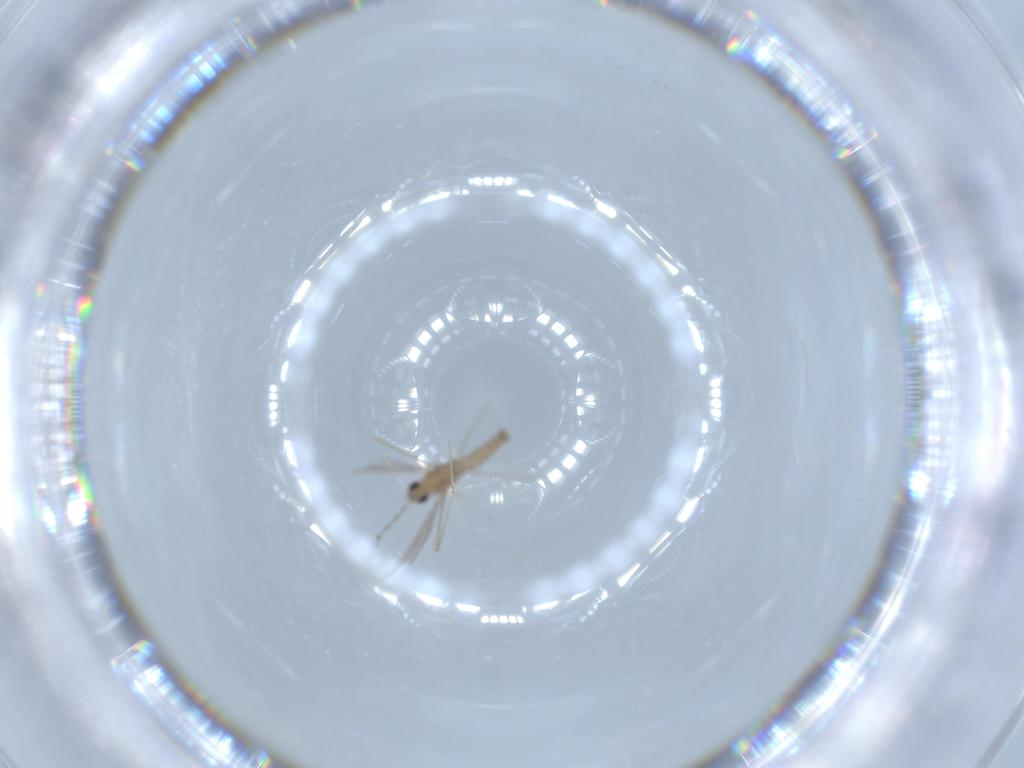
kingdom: Animalia
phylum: Arthropoda
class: Insecta
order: Diptera
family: Cecidomyiidae
